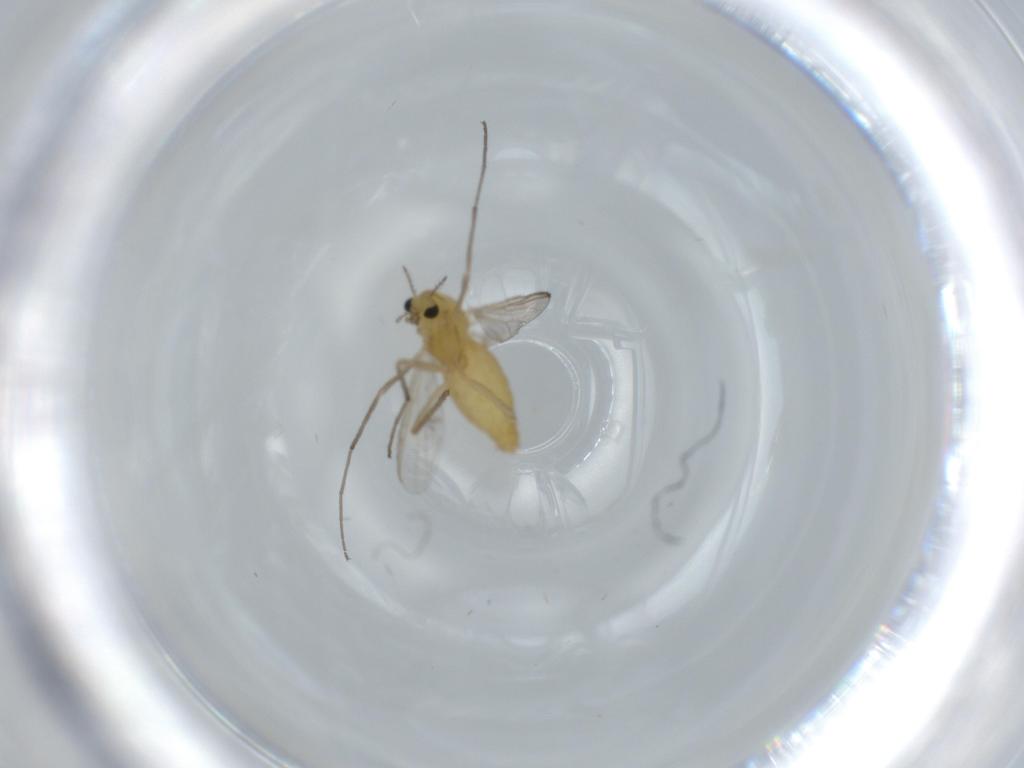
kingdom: Animalia
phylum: Arthropoda
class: Insecta
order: Diptera
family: Chironomidae
